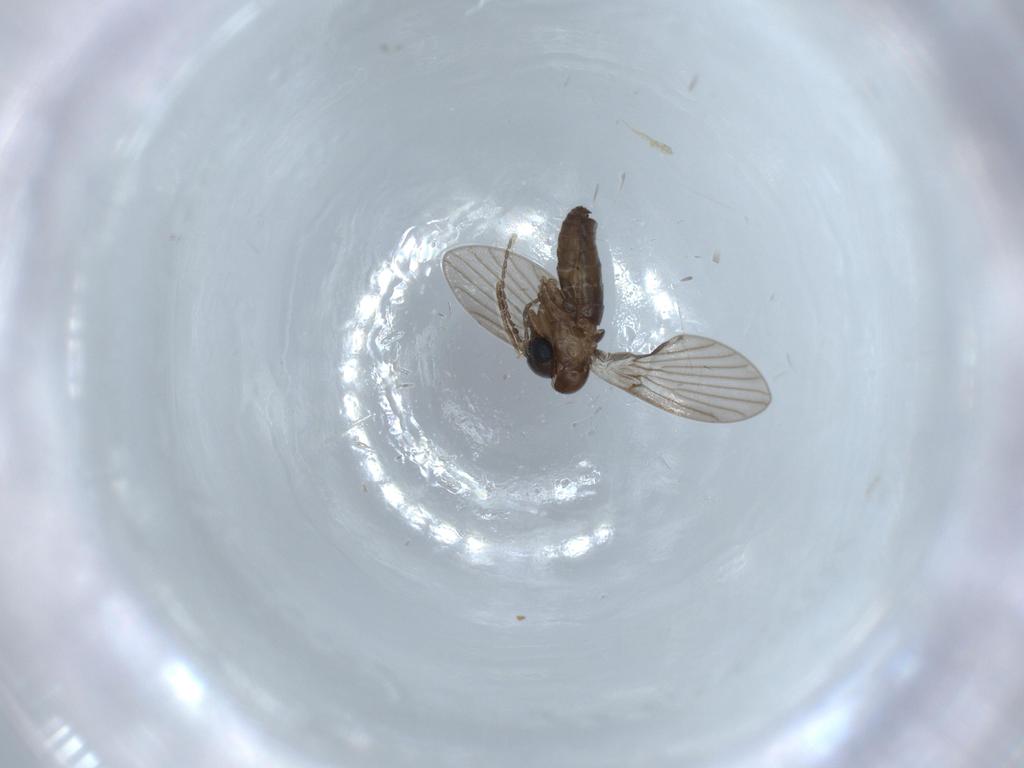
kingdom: Animalia
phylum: Arthropoda
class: Insecta
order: Diptera
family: Psychodidae
